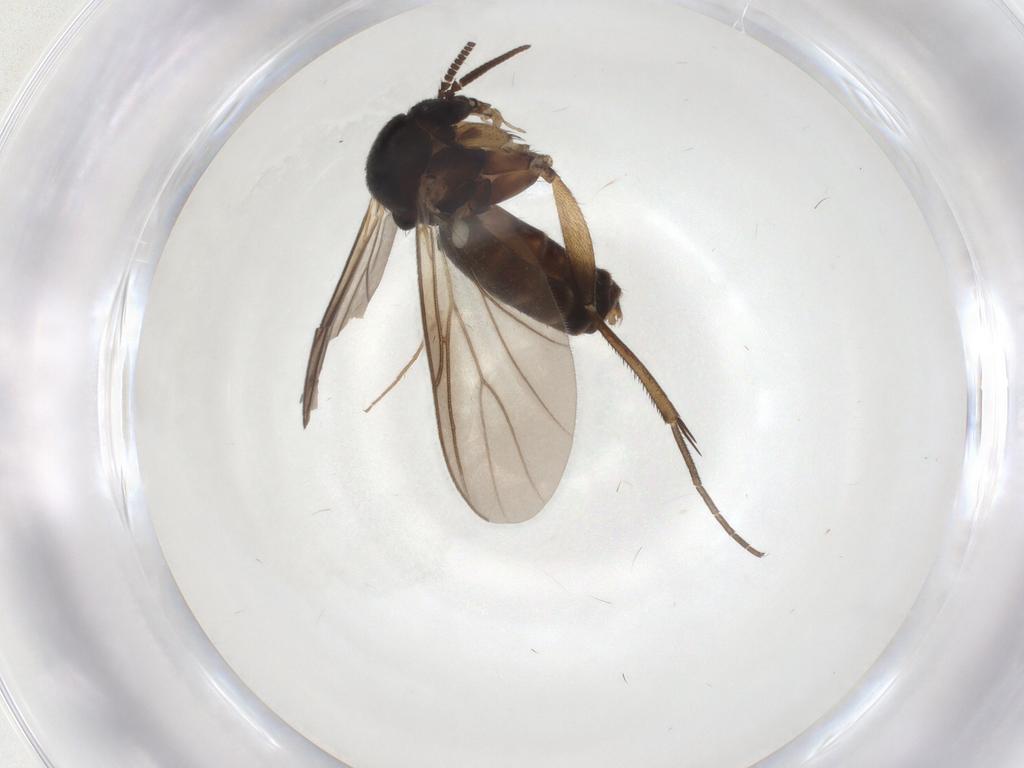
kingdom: Animalia
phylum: Arthropoda
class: Insecta
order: Diptera
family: Mycetophilidae
